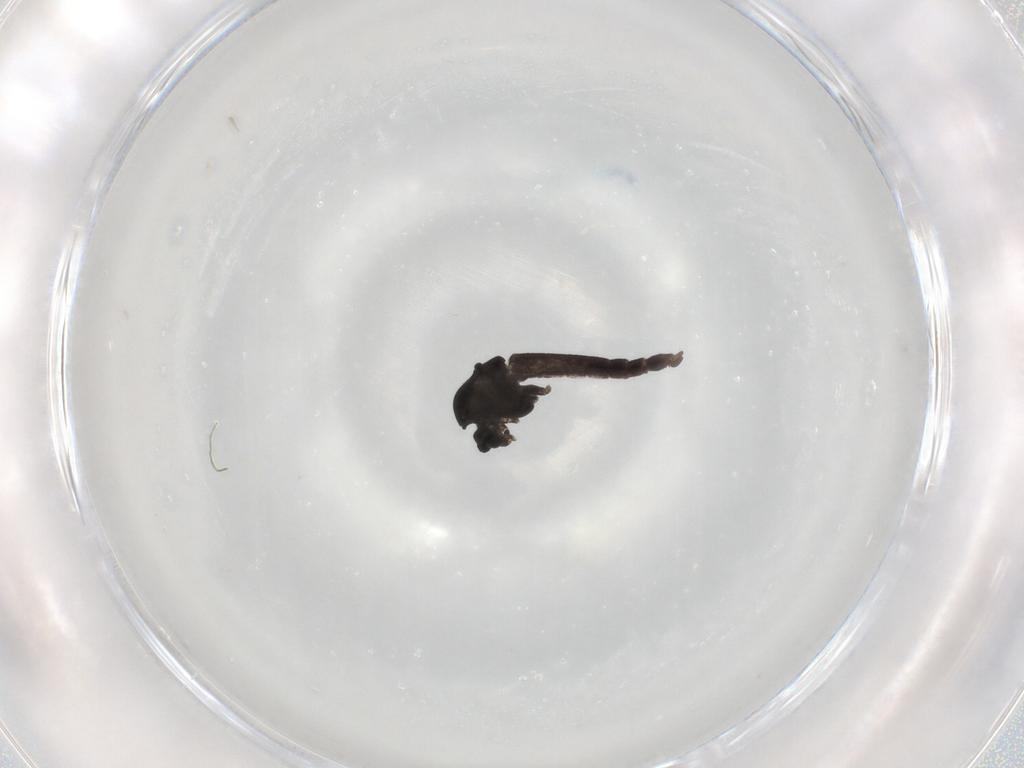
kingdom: Animalia
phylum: Arthropoda
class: Insecta
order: Diptera
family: Chironomidae
